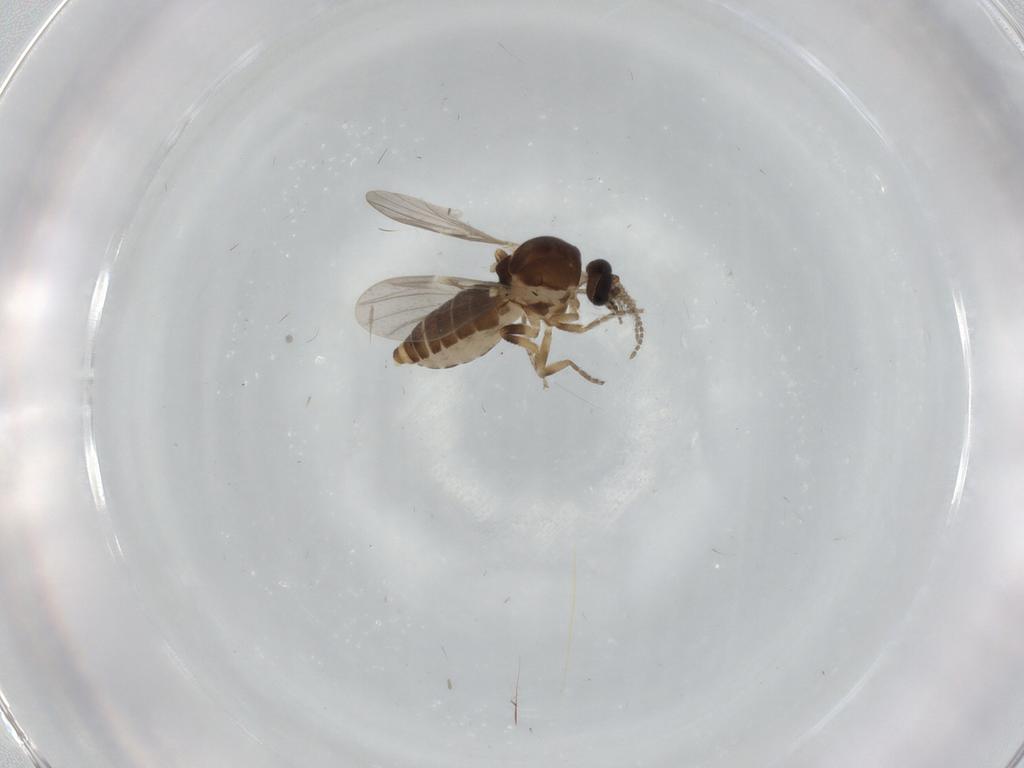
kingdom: Animalia
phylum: Arthropoda
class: Insecta
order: Diptera
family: Ceratopogonidae
